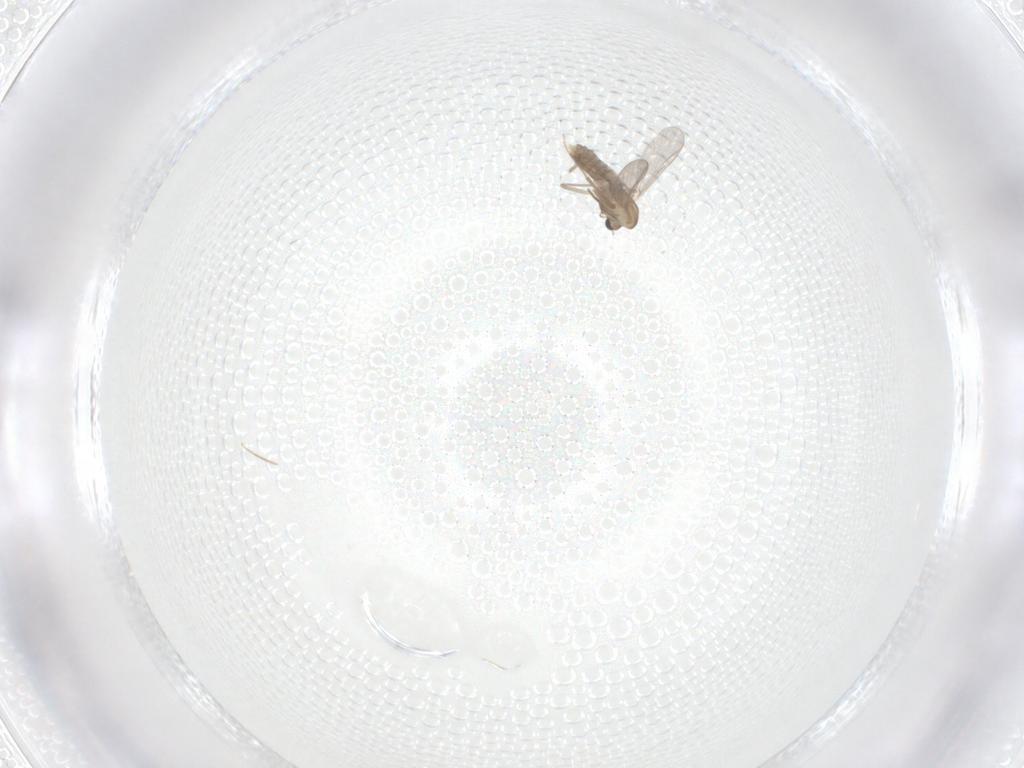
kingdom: Animalia
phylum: Arthropoda
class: Insecta
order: Diptera
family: Chironomidae
